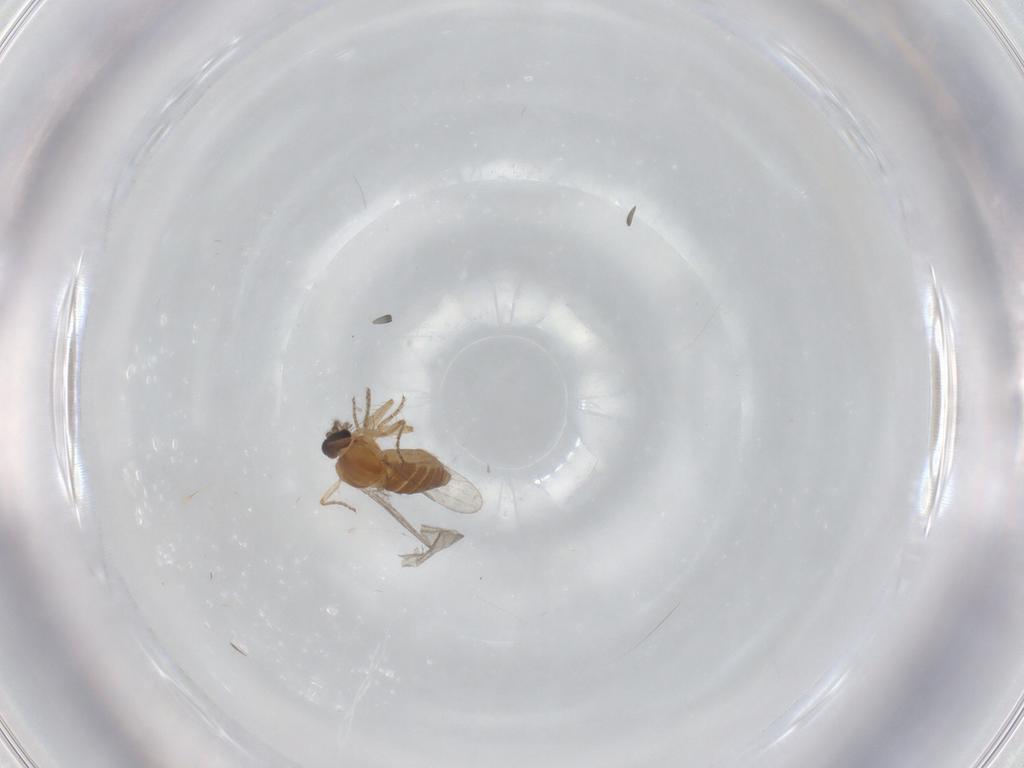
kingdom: Animalia
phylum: Arthropoda
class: Insecta
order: Diptera
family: Ceratopogonidae
